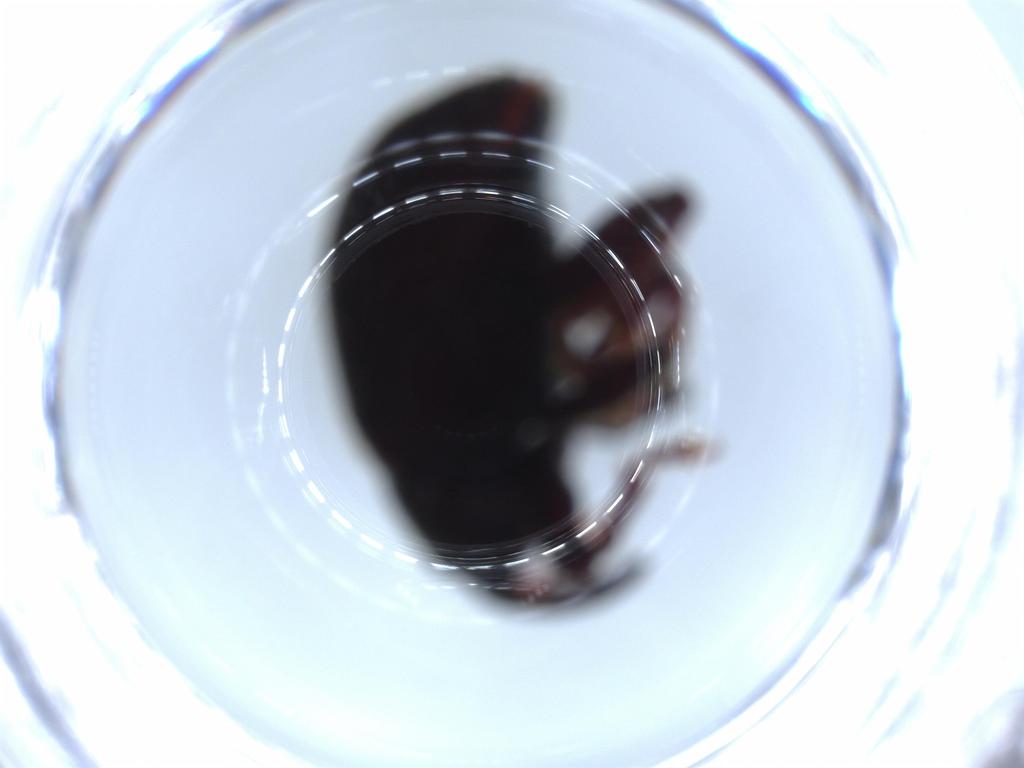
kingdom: Animalia
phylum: Arthropoda
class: Insecta
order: Coleoptera
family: Chrysomelidae
